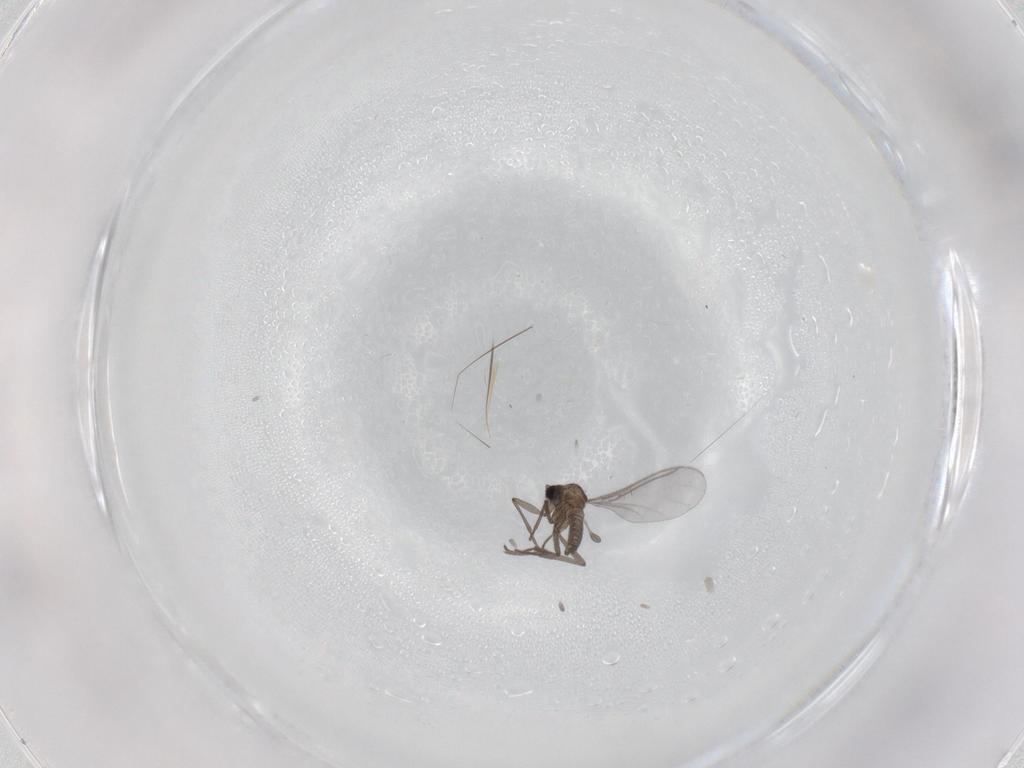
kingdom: Animalia
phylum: Arthropoda
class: Insecta
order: Diptera
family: Sciaridae
